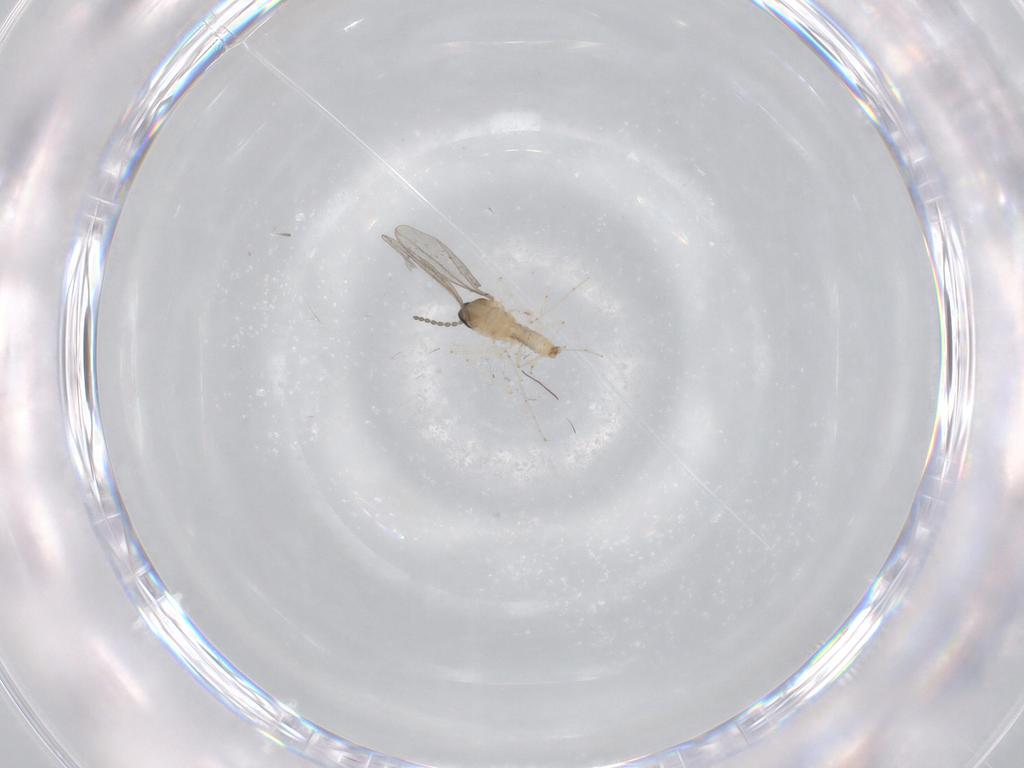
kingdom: Animalia
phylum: Arthropoda
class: Insecta
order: Diptera
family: Cecidomyiidae
